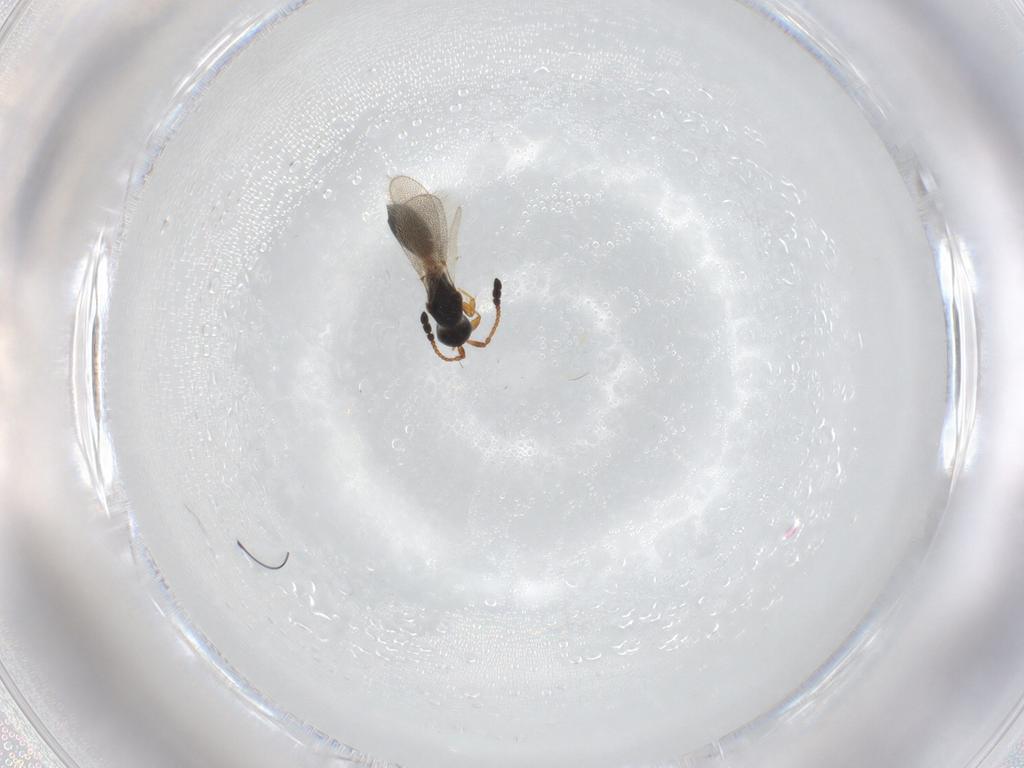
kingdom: Animalia
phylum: Arthropoda
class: Insecta
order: Hymenoptera
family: Diapriidae
